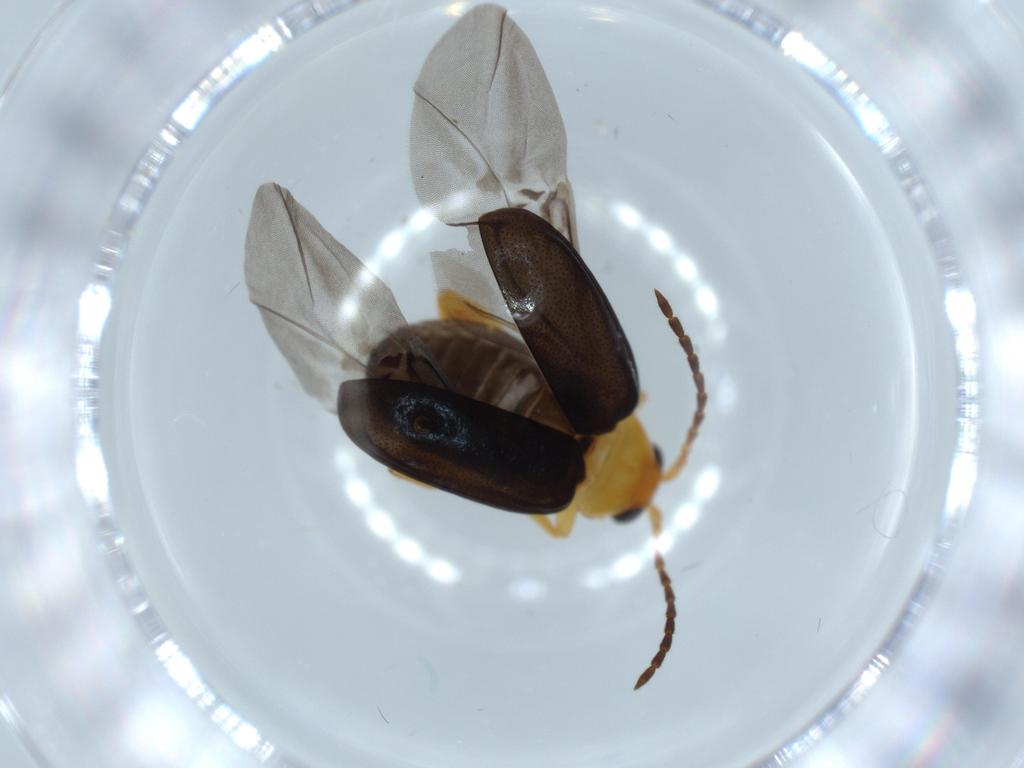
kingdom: Animalia
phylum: Arthropoda
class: Insecta
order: Coleoptera
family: Chrysomelidae
